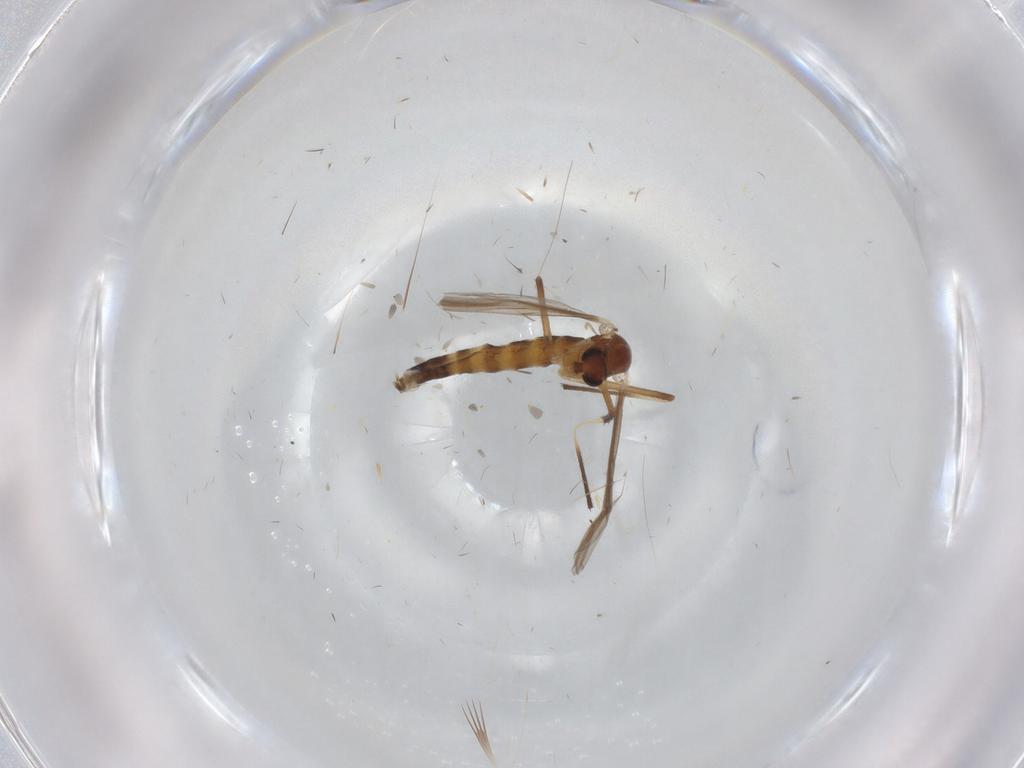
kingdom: Animalia
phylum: Arthropoda
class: Insecta
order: Diptera
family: Chironomidae
